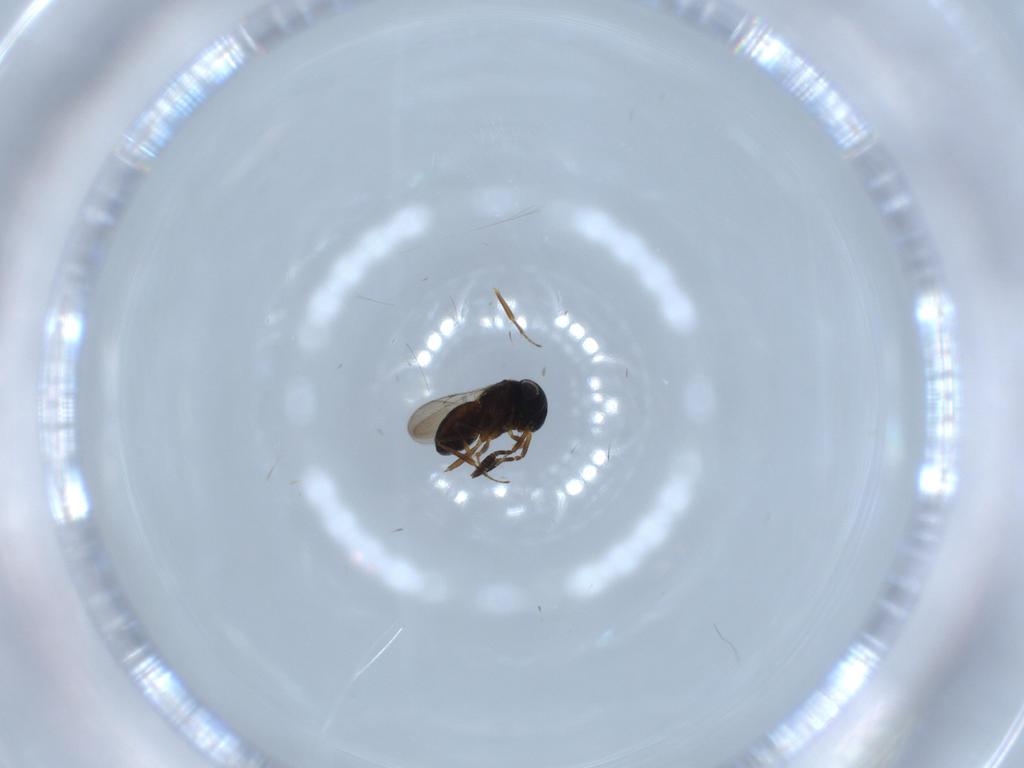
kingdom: Animalia
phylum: Arthropoda
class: Insecta
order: Hymenoptera
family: Scelionidae
